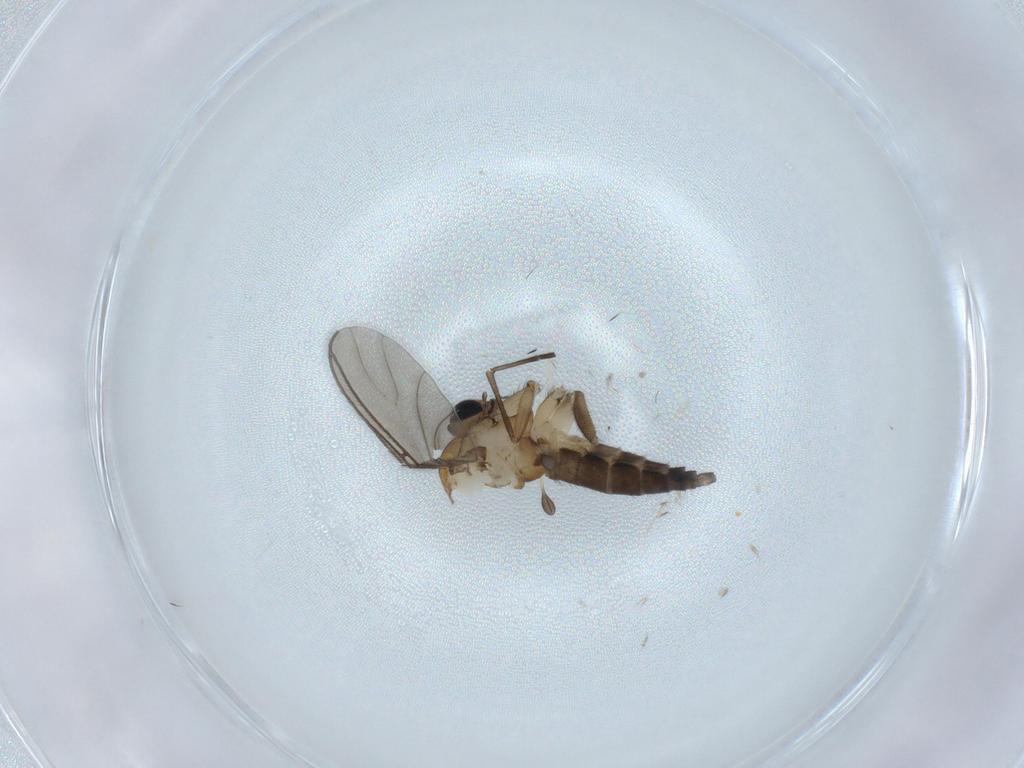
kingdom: Animalia
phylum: Arthropoda
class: Insecta
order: Diptera
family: Sciaridae
